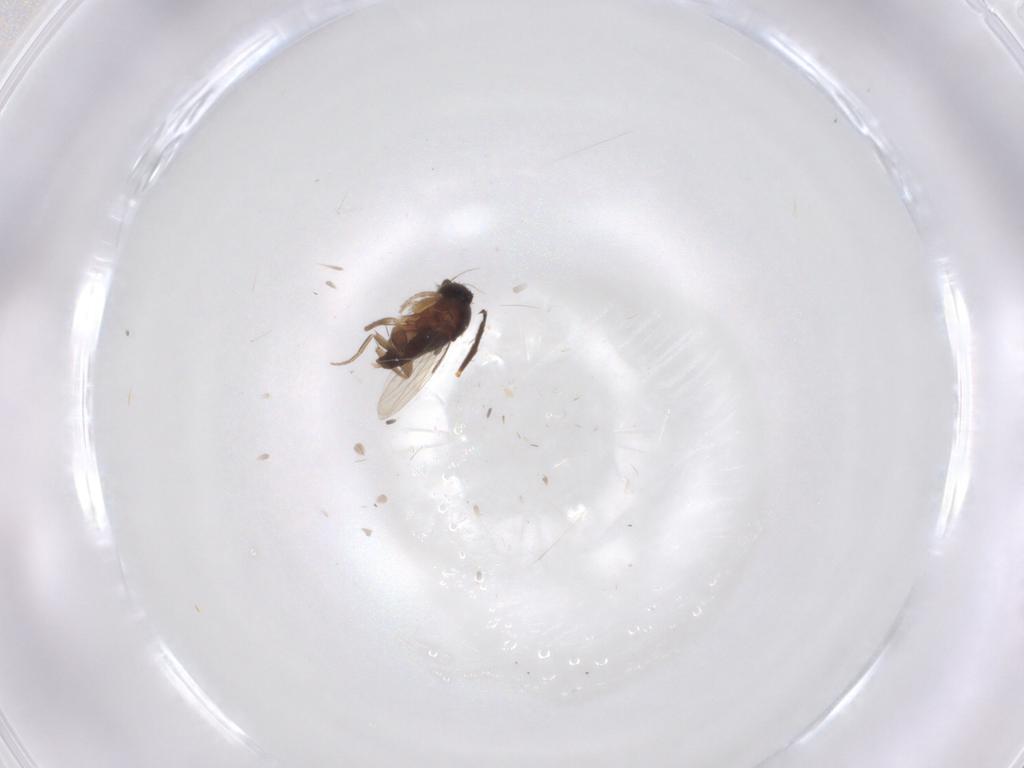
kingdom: Animalia
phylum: Arthropoda
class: Insecta
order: Diptera
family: Phoridae
